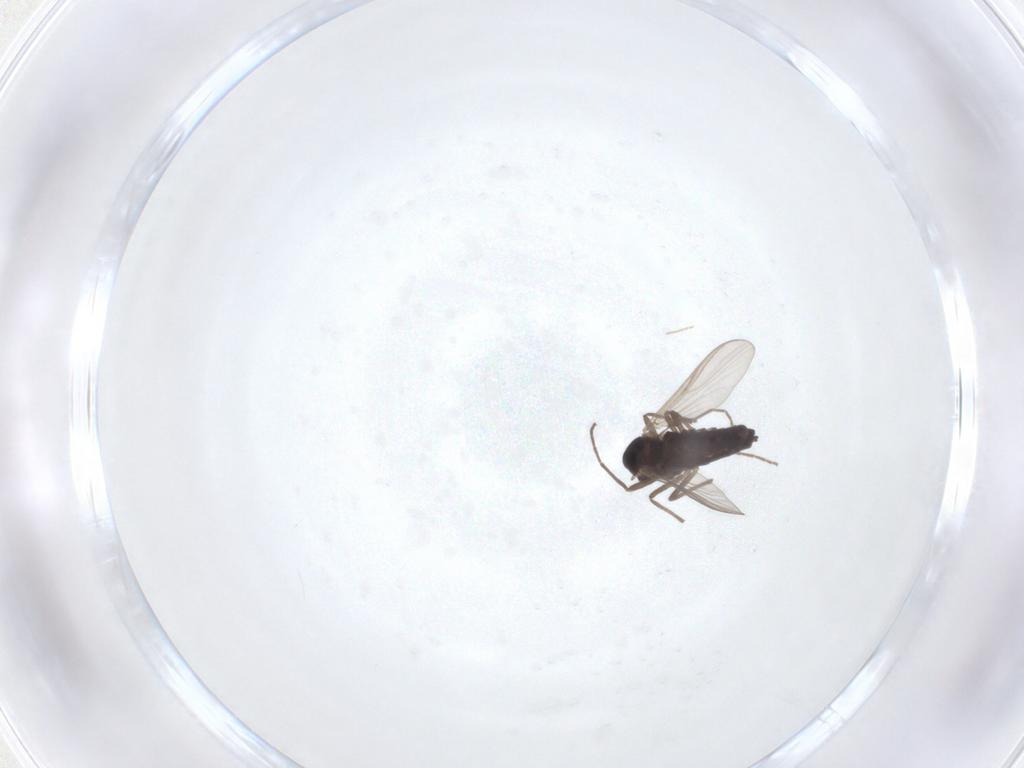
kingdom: Animalia
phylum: Arthropoda
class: Insecta
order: Diptera
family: Chironomidae
